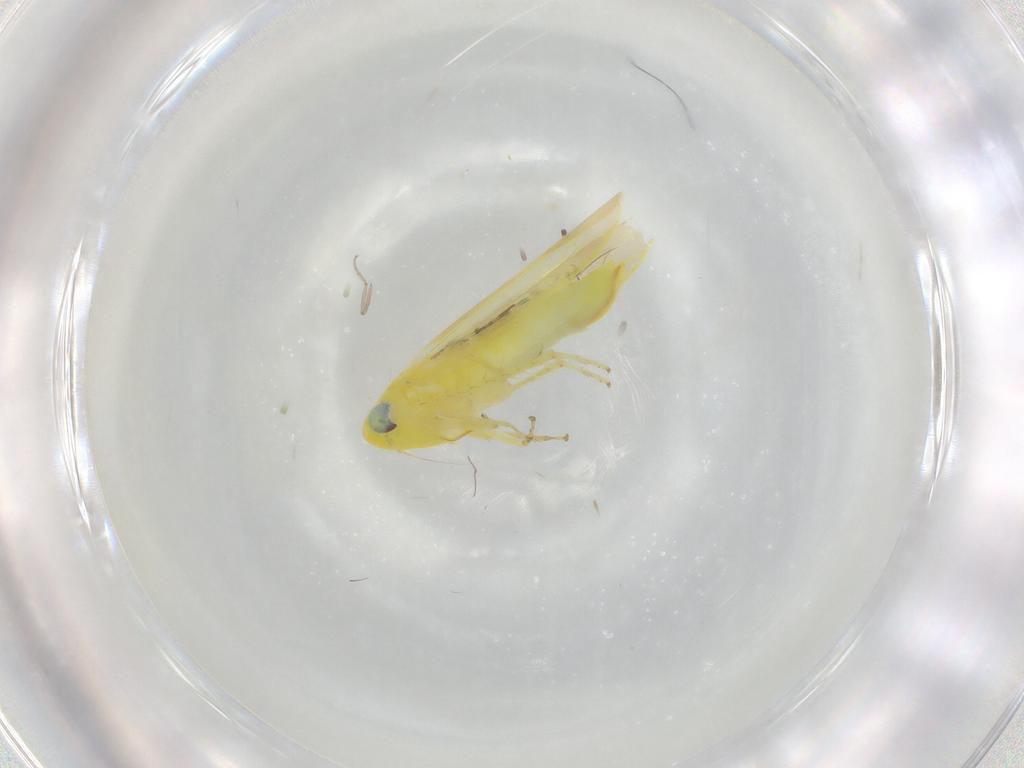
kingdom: Animalia
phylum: Arthropoda
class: Insecta
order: Hemiptera
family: Cicadellidae
